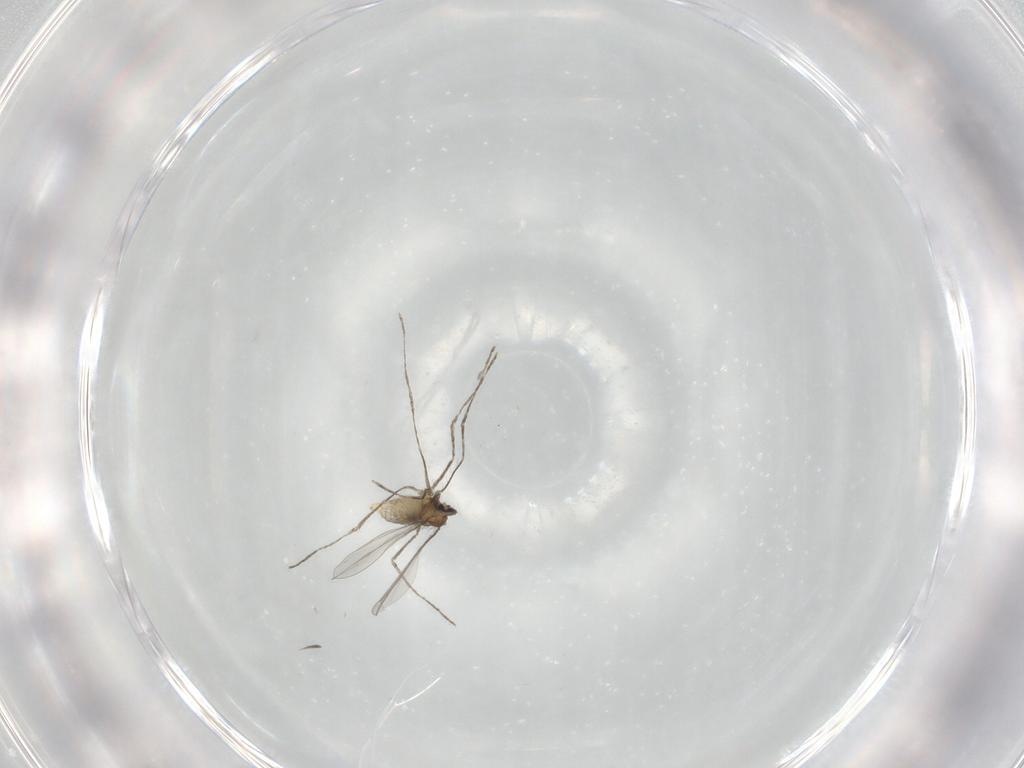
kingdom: Animalia
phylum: Arthropoda
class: Insecta
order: Diptera
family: Cecidomyiidae
